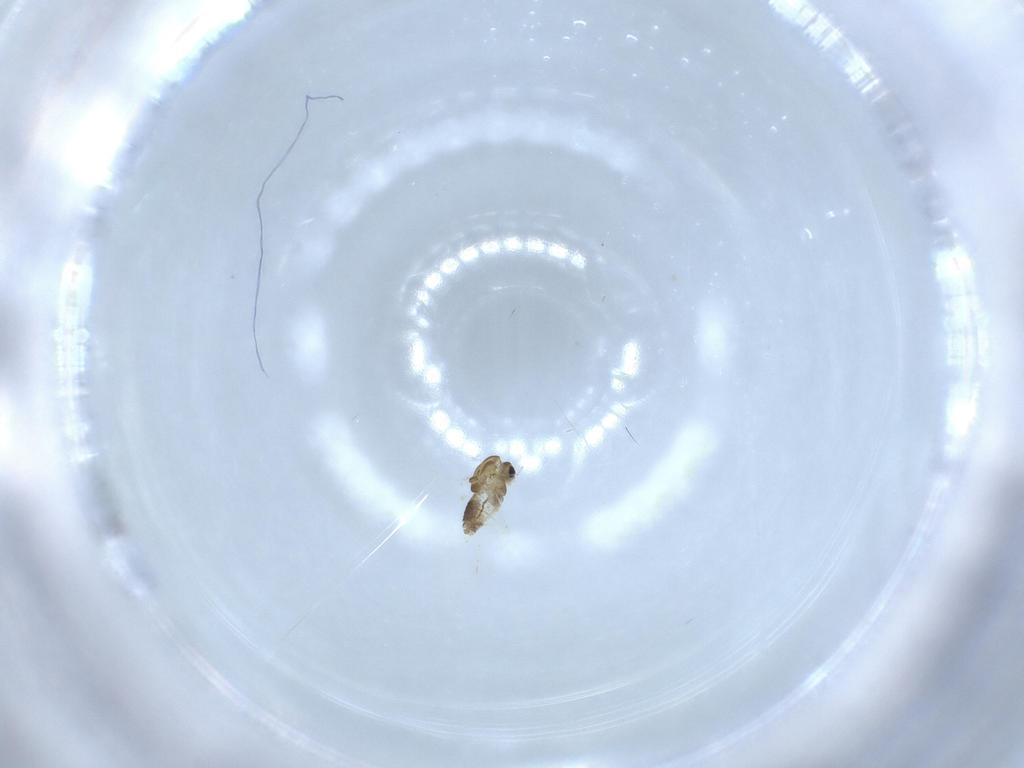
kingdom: Animalia
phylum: Arthropoda
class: Insecta
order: Diptera
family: Chironomidae
